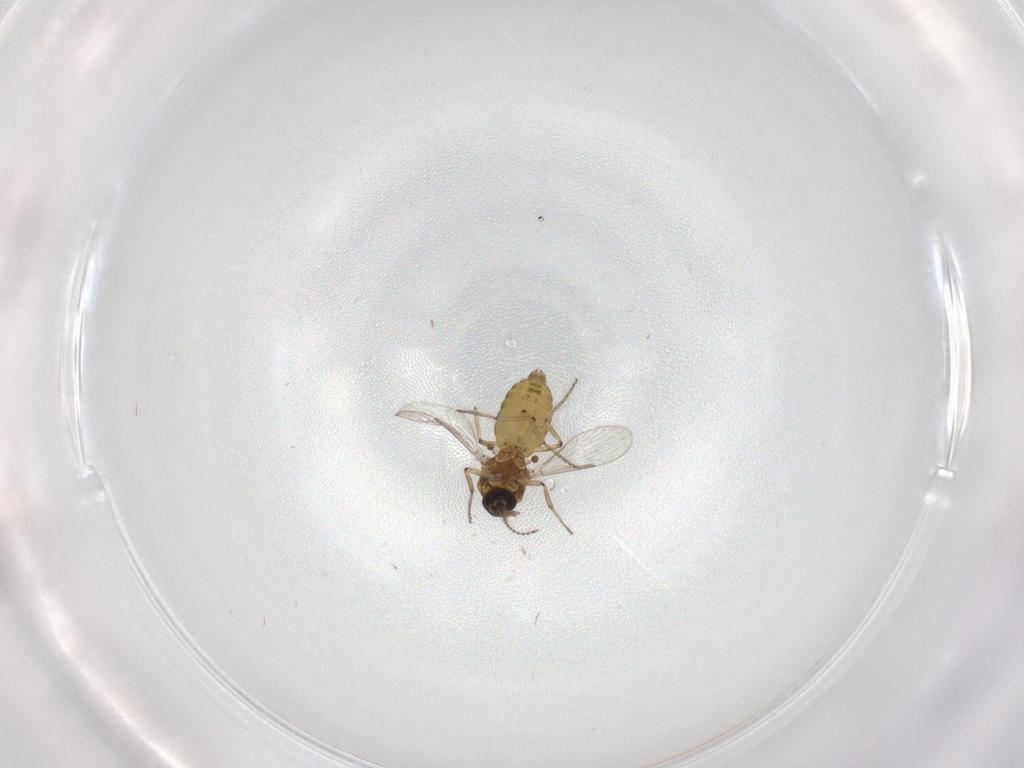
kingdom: Animalia
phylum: Arthropoda
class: Insecta
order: Diptera
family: Ceratopogonidae
